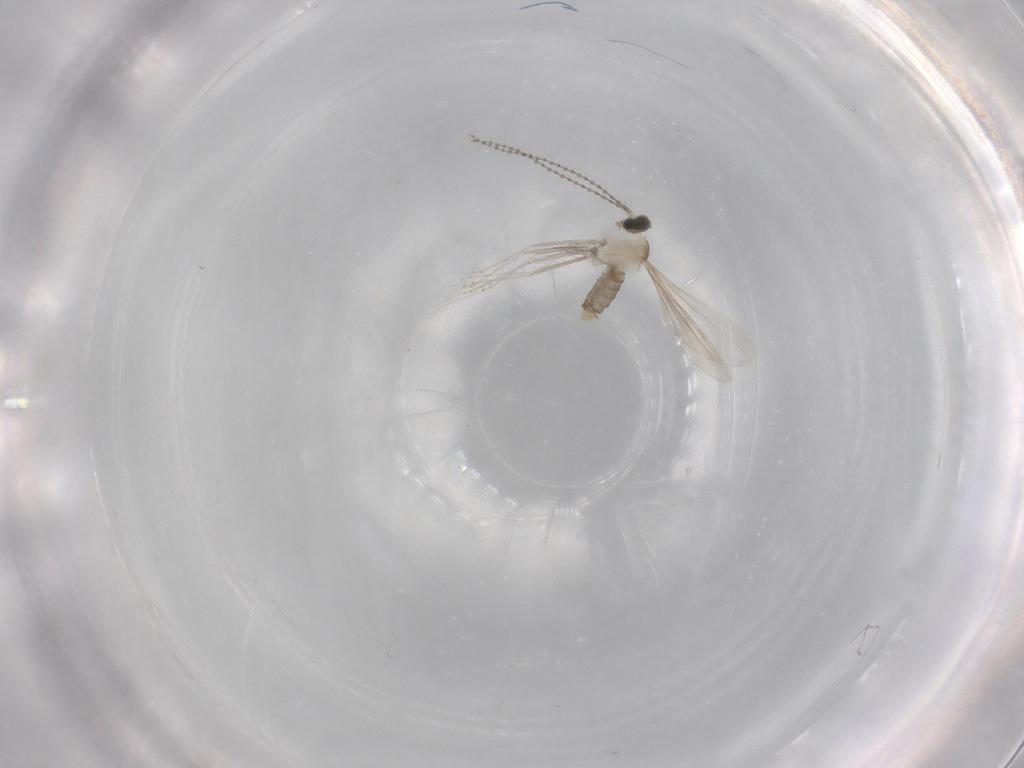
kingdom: Animalia
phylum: Arthropoda
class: Insecta
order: Diptera
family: Cecidomyiidae
